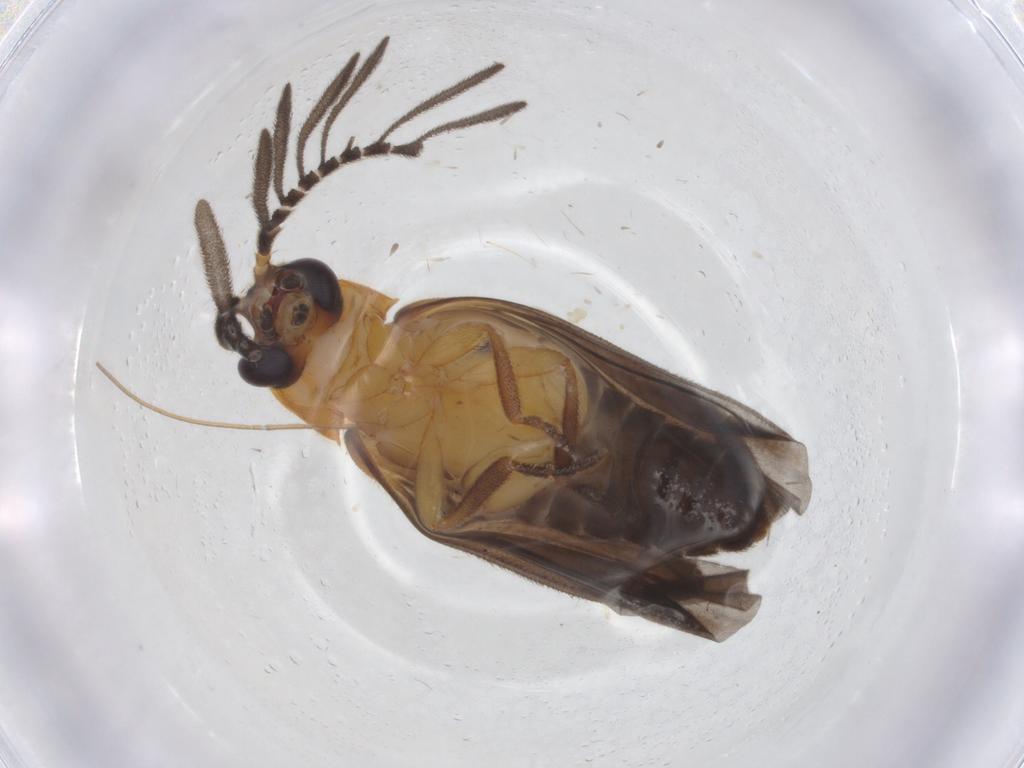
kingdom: Animalia
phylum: Arthropoda
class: Insecta
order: Coleoptera
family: Lampyridae
